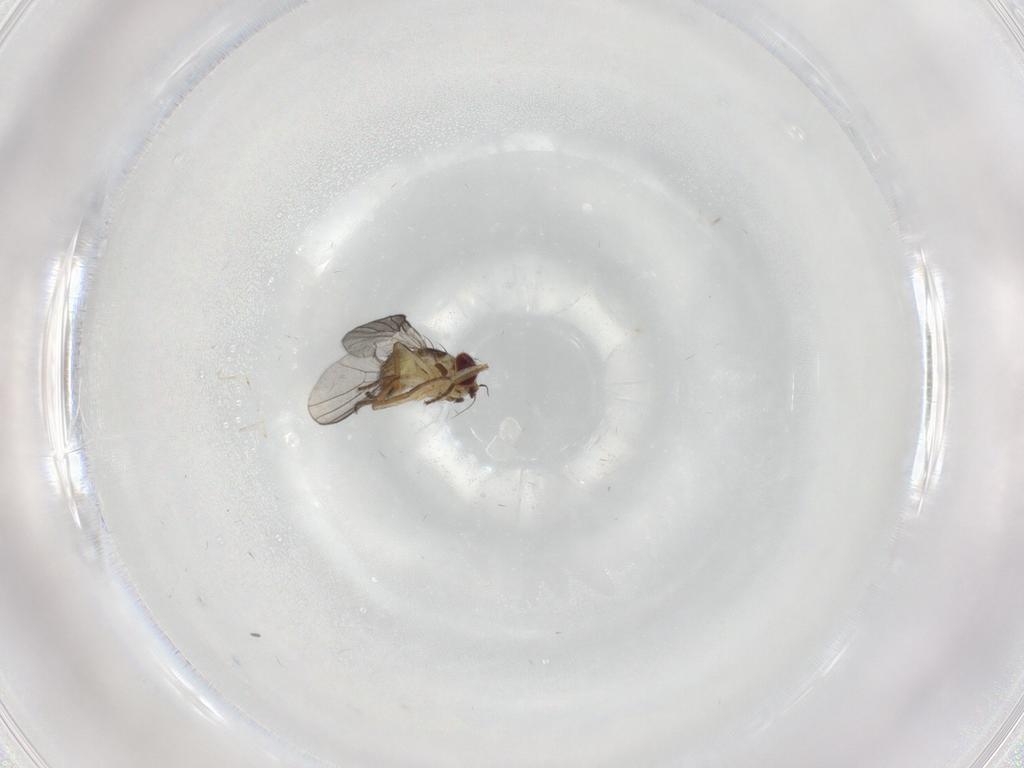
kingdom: Animalia
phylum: Arthropoda
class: Insecta
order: Diptera
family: Agromyzidae
